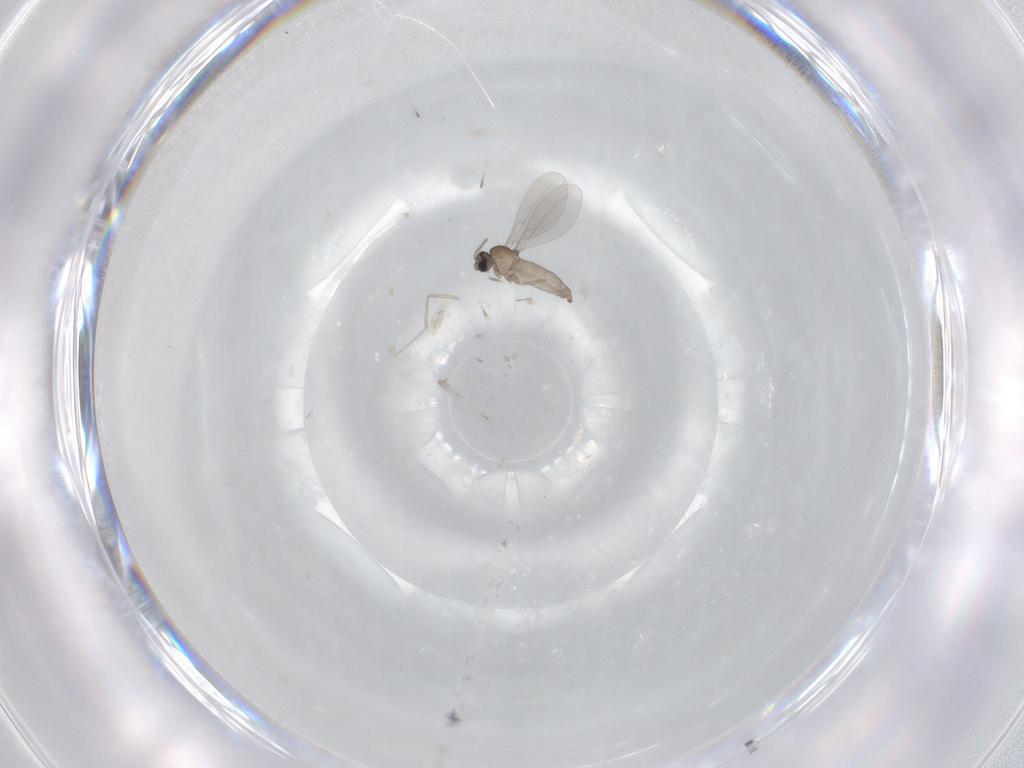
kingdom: Animalia
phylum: Arthropoda
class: Insecta
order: Diptera
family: Cecidomyiidae
